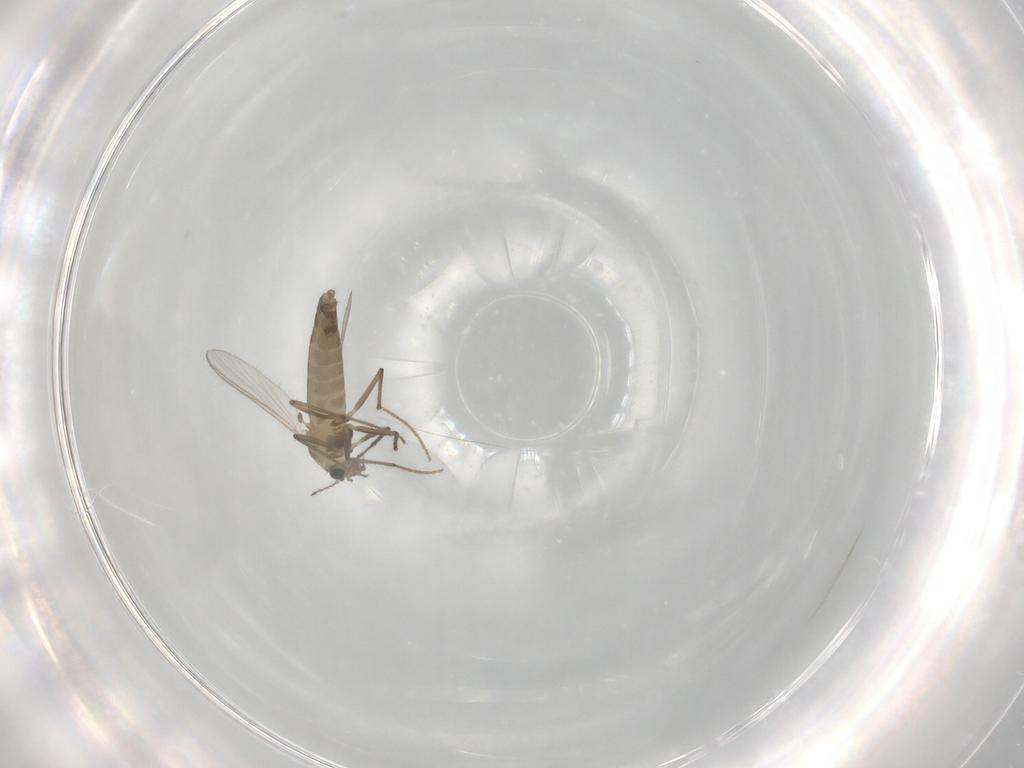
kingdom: Animalia
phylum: Arthropoda
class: Insecta
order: Diptera
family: Chironomidae
